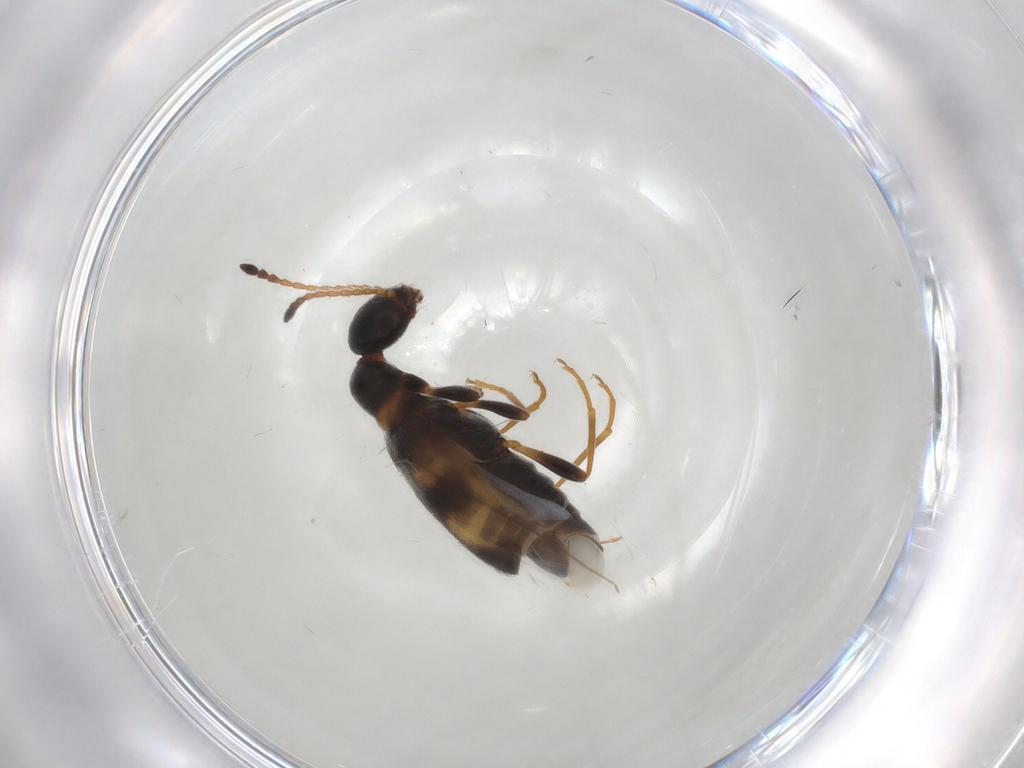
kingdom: Animalia
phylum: Arthropoda
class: Insecta
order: Coleoptera
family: Anthicidae
